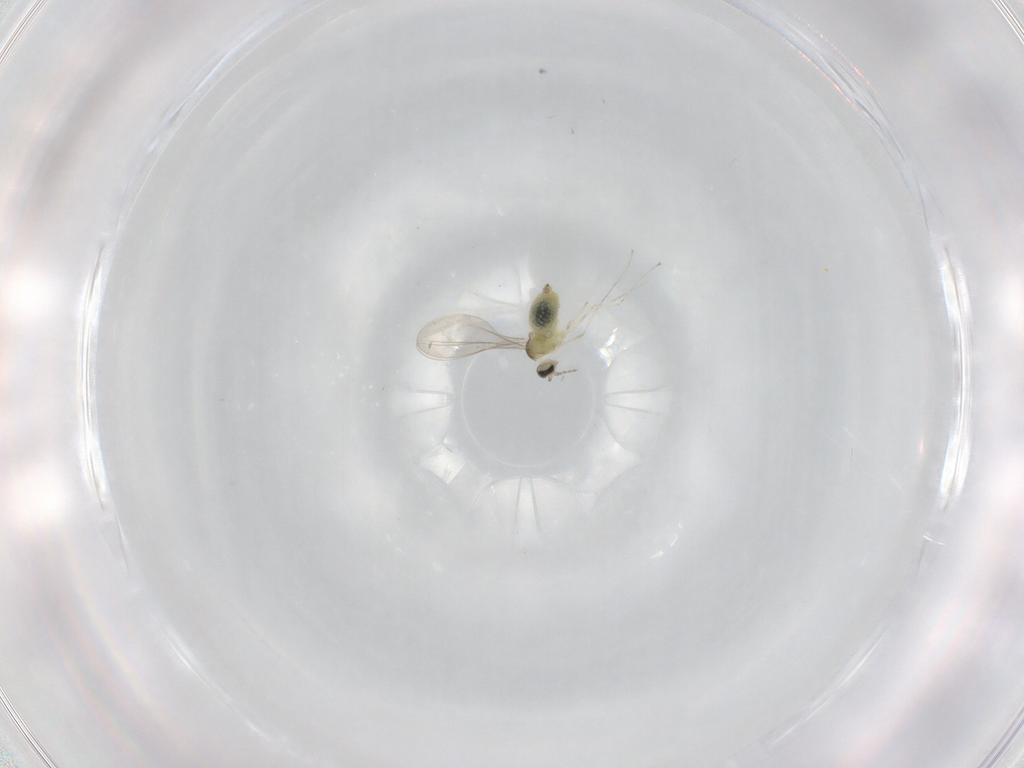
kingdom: Animalia
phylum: Arthropoda
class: Insecta
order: Diptera
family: Cecidomyiidae
